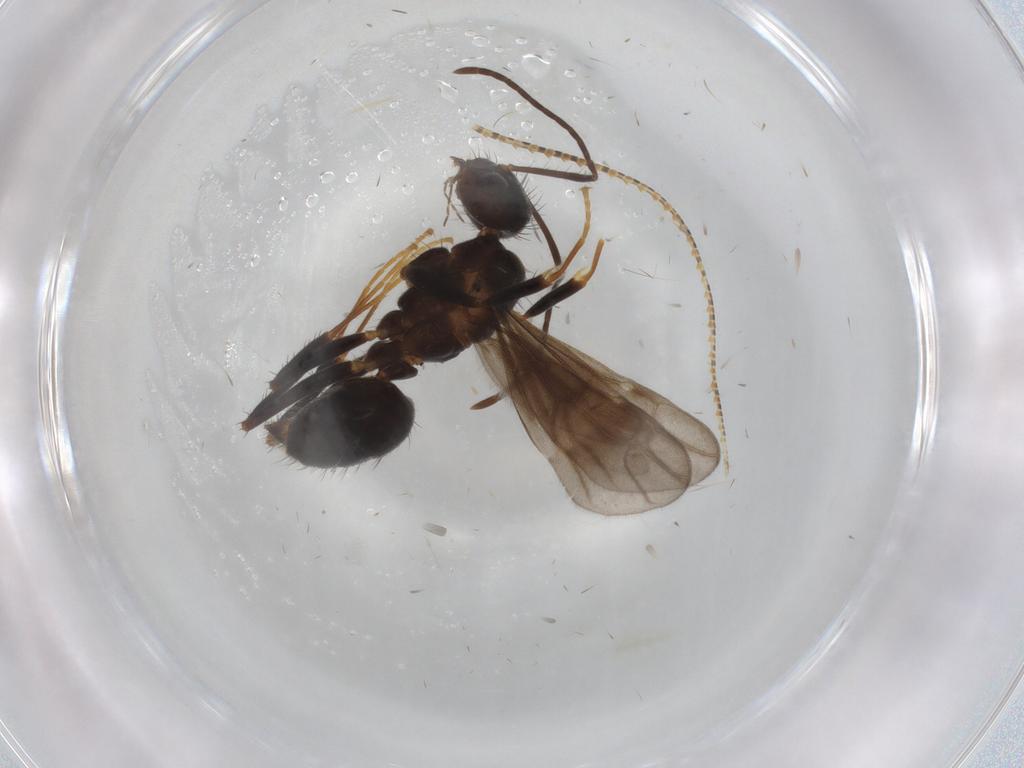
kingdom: Animalia
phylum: Arthropoda
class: Insecta
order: Hymenoptera
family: Formicidae
